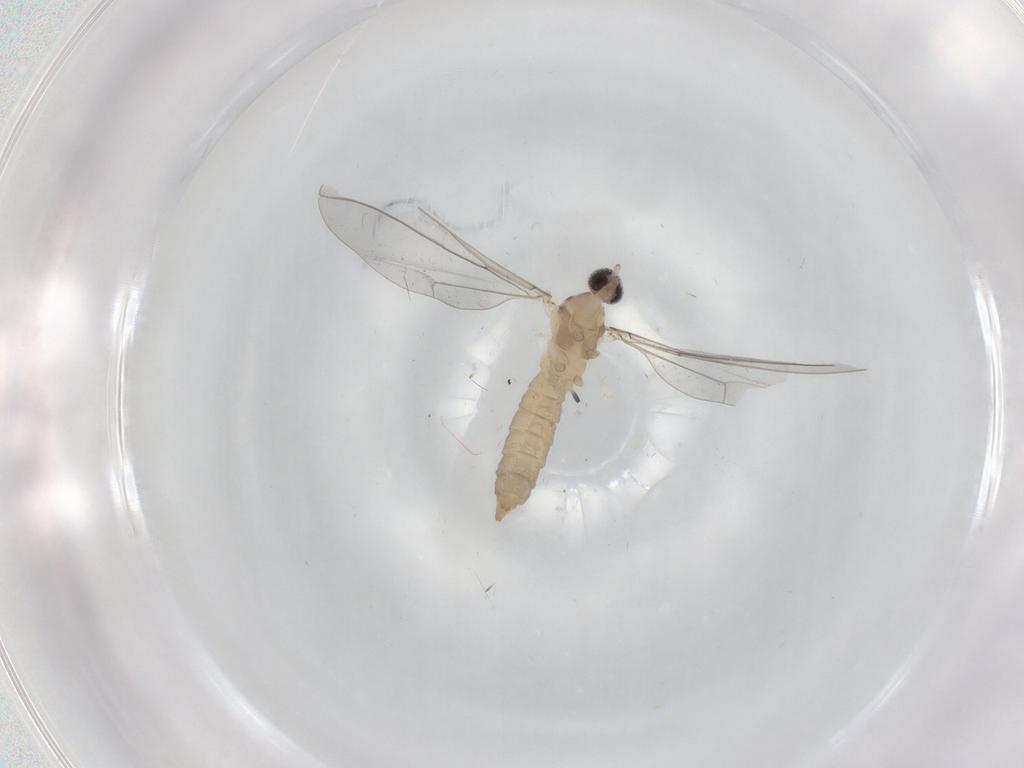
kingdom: Animalia
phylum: Arthropoda
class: Insecta
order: Diptera
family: Cecidomyiidae
